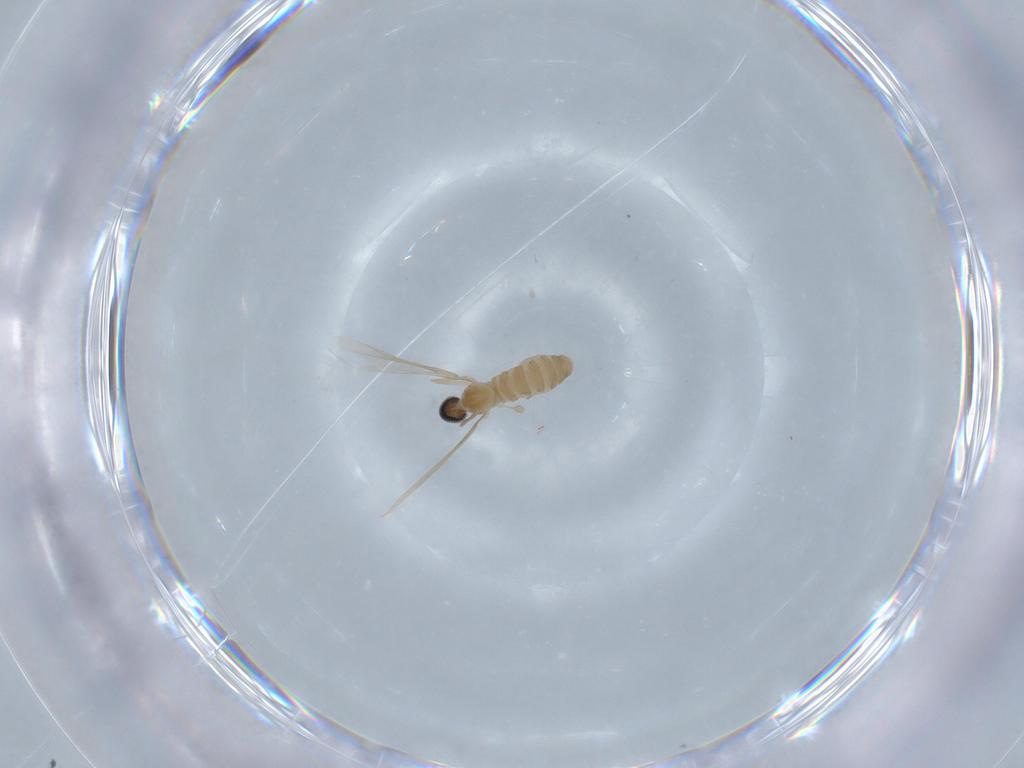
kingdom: Animalia
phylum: Arthropoda
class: Insecta
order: Diptera
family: Cecidomyiidae
